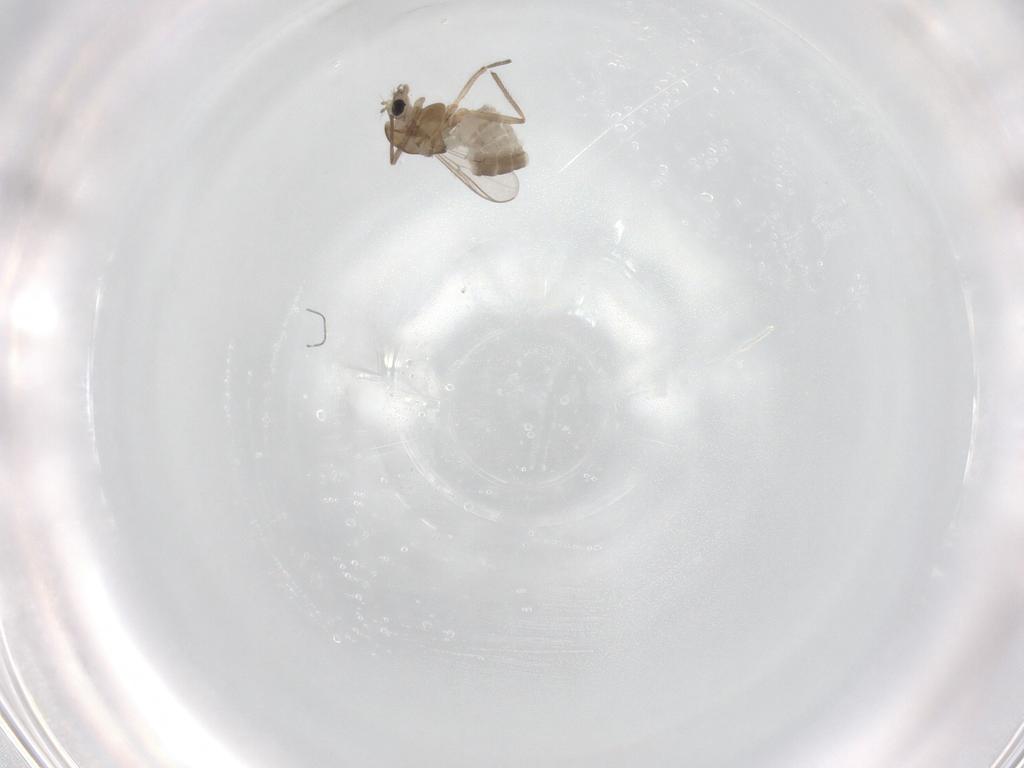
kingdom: Animalia
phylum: Arthropoda
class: Insecta
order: Diptera
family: Chironomidae
